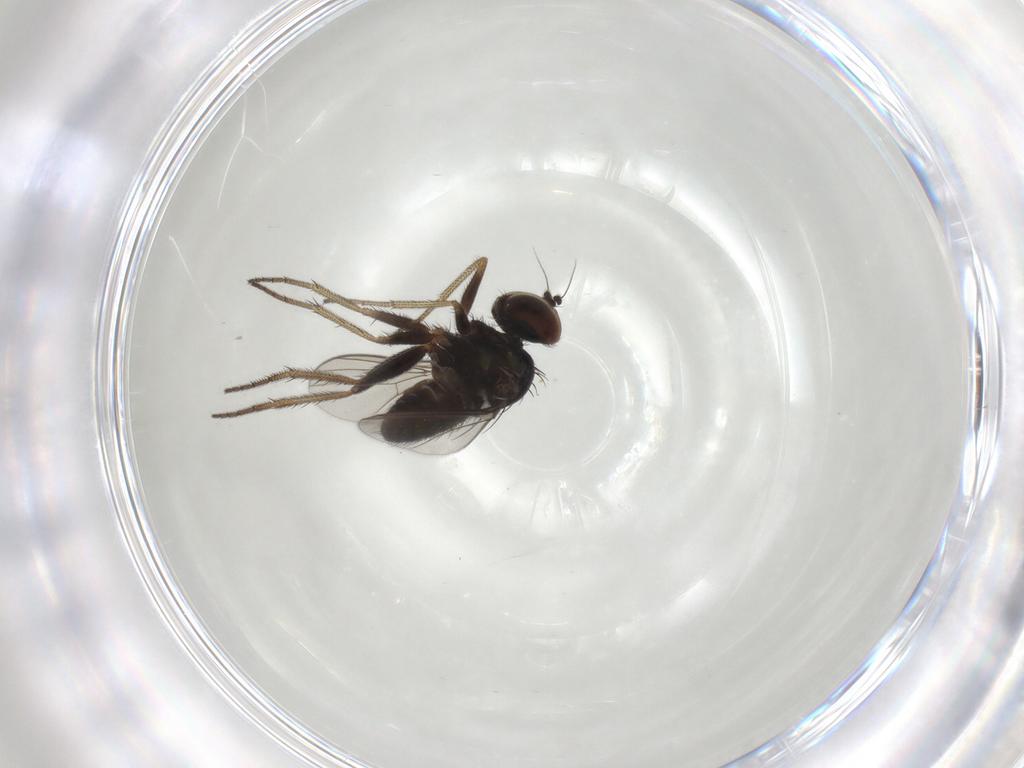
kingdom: Animalia
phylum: Arthropoda
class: Insecta
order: Diptera
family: Dolichopodidae
